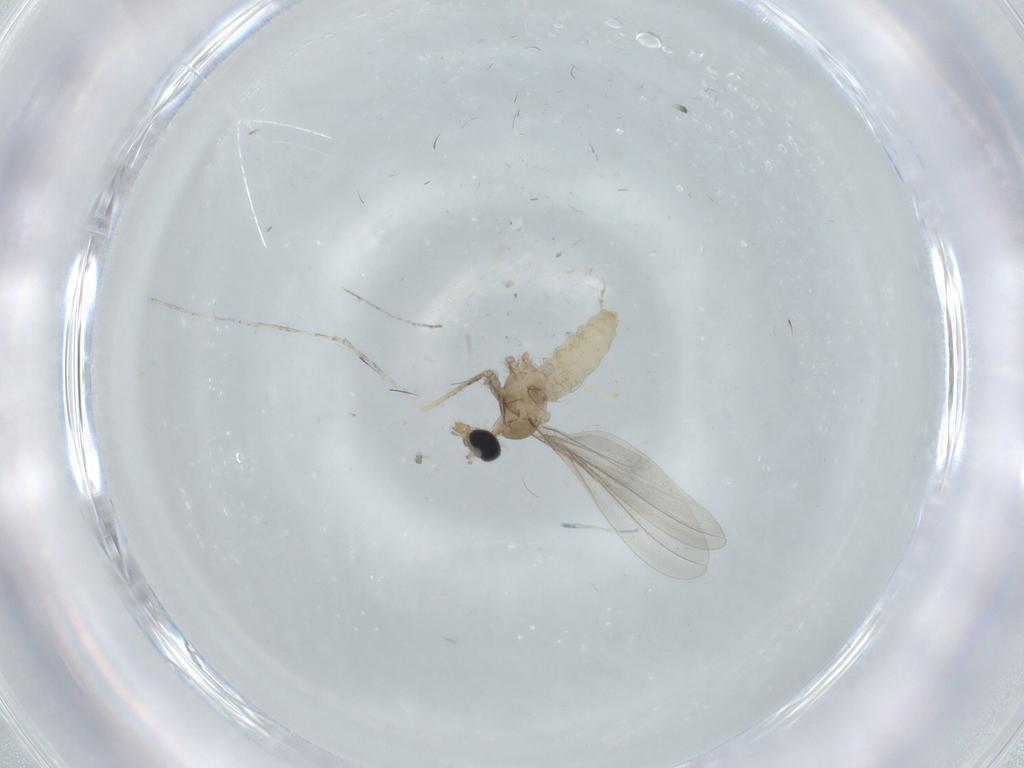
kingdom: Animalia
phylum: Arthropoda
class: Insecta
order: Diptera
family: Cecidomyiidae
